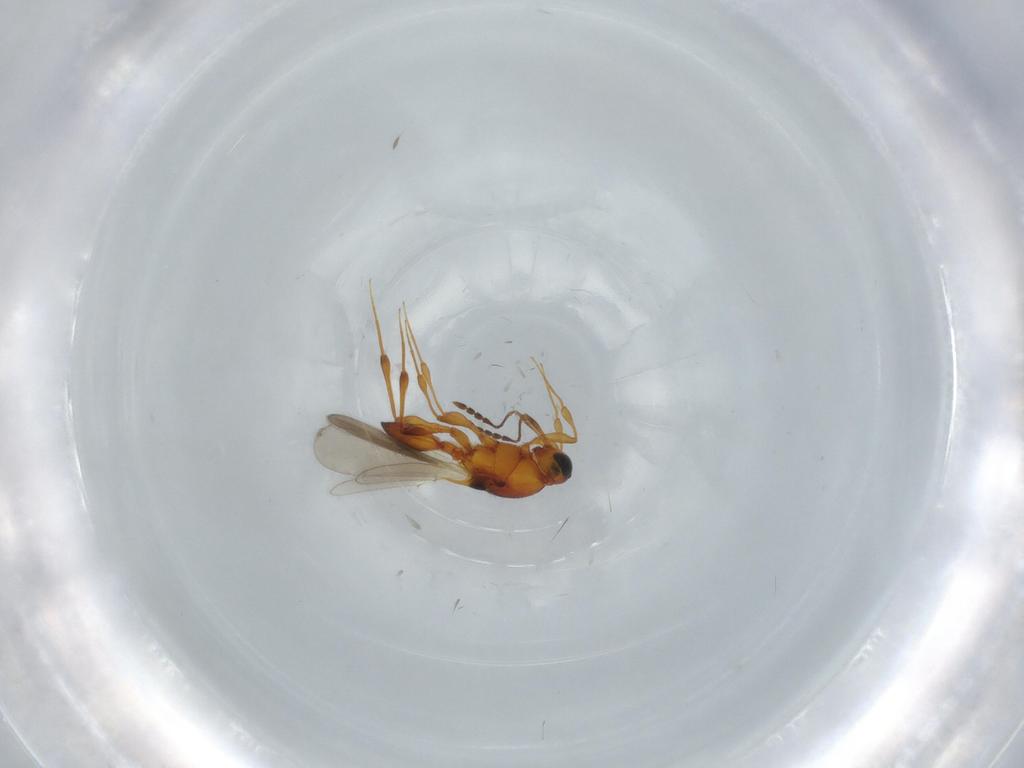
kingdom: Animalia
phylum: Arthropoda
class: Insecta
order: Hymenoptera
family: Platygastridae
